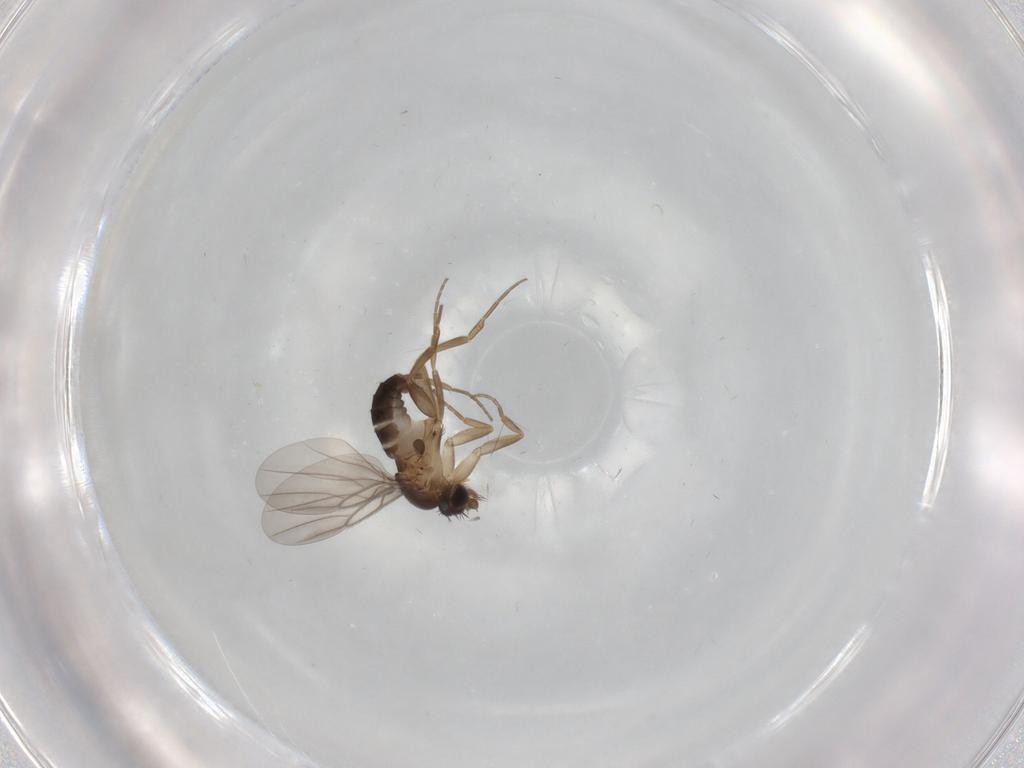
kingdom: Animalia
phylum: Arthropoda
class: Insecta
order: Diptera
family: Cecidomyiidae
